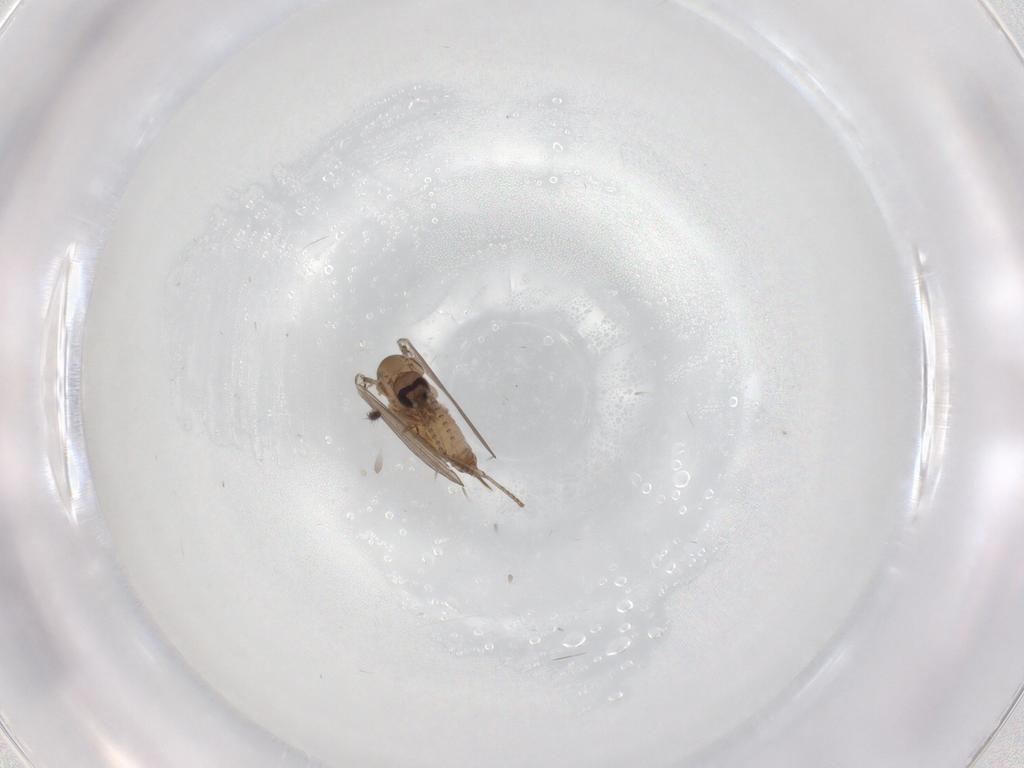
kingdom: Animalia
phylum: Arthropoda
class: Insecta
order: Diptera
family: Psychodidae
